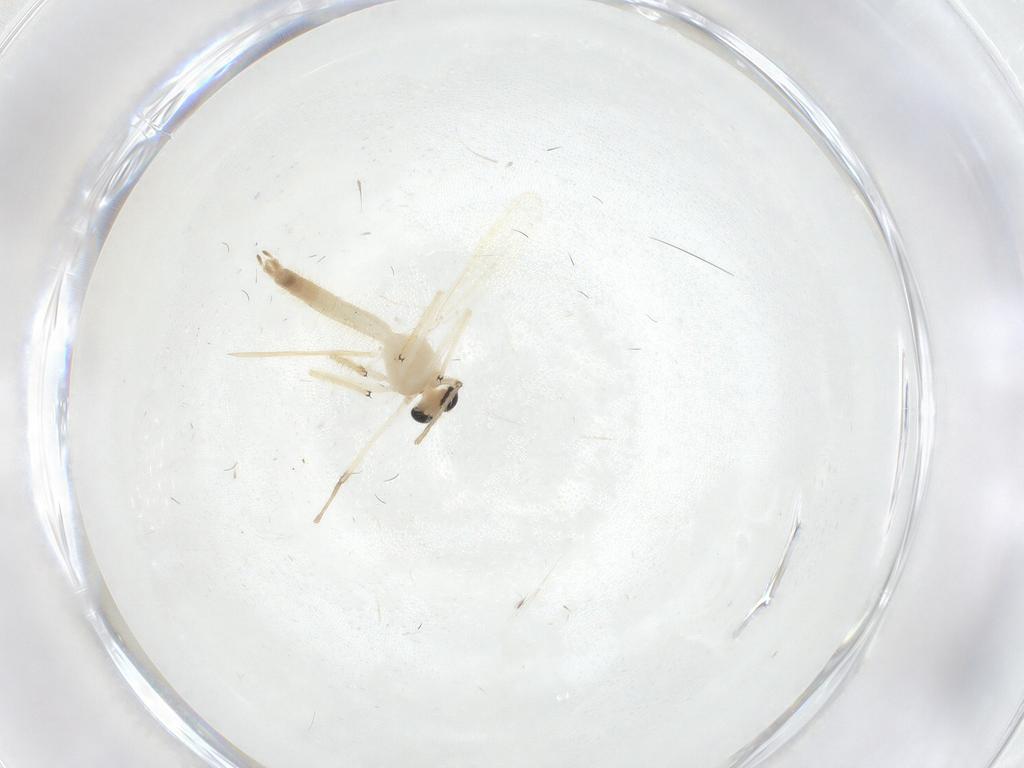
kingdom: Animalia
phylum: Arthropoda
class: Insecta
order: Diptera
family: Chironomidae
